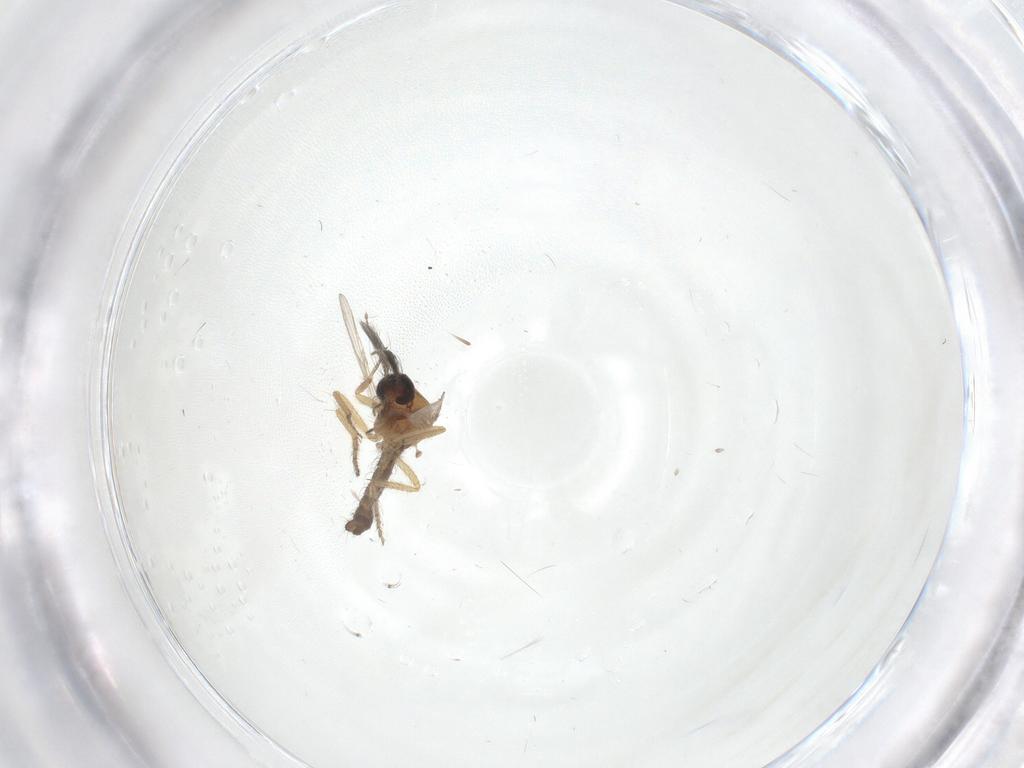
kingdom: Animalia
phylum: Arthropoda
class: Insecta
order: Diptera
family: Ceratopogonidae
